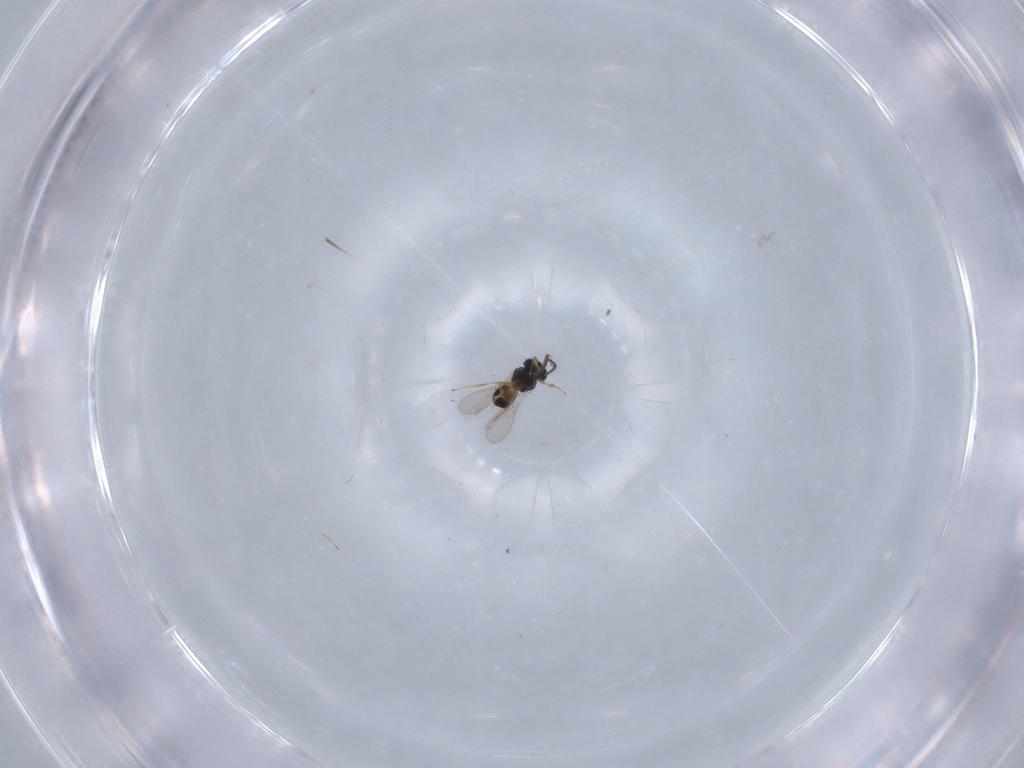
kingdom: Animalia
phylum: Arthropoda
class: Insecta
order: Hymenoptera
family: Scelionidae
